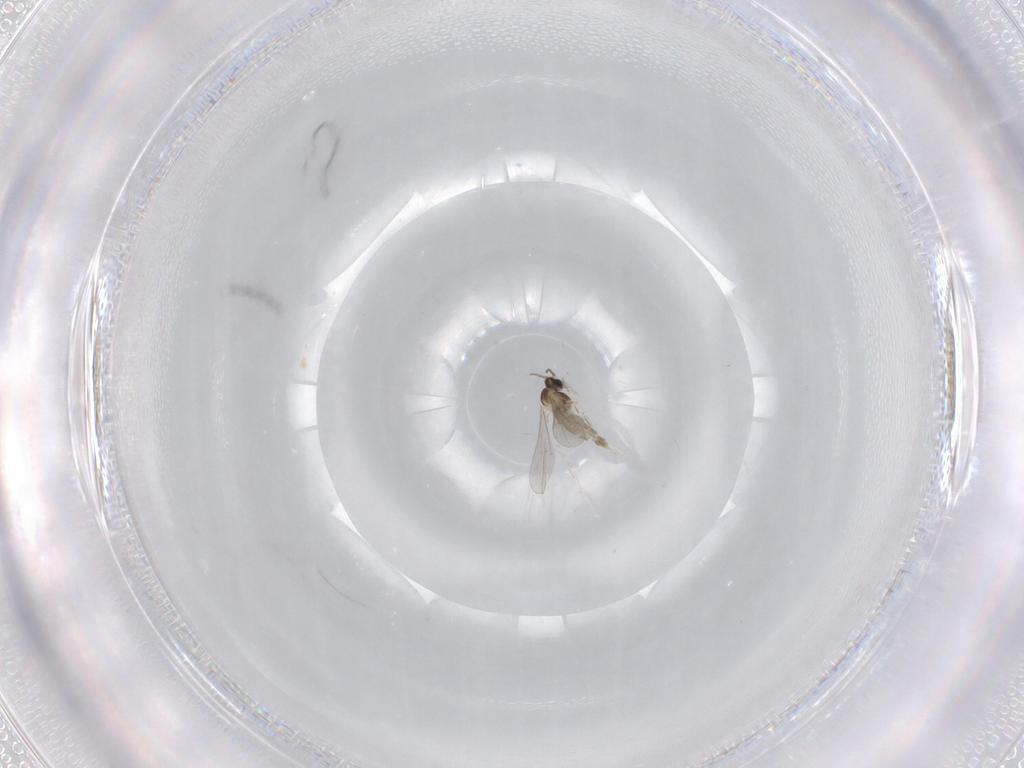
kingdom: Animalia
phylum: Arthropoda
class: Insecta
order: Diptera
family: Cecidomyiidae
